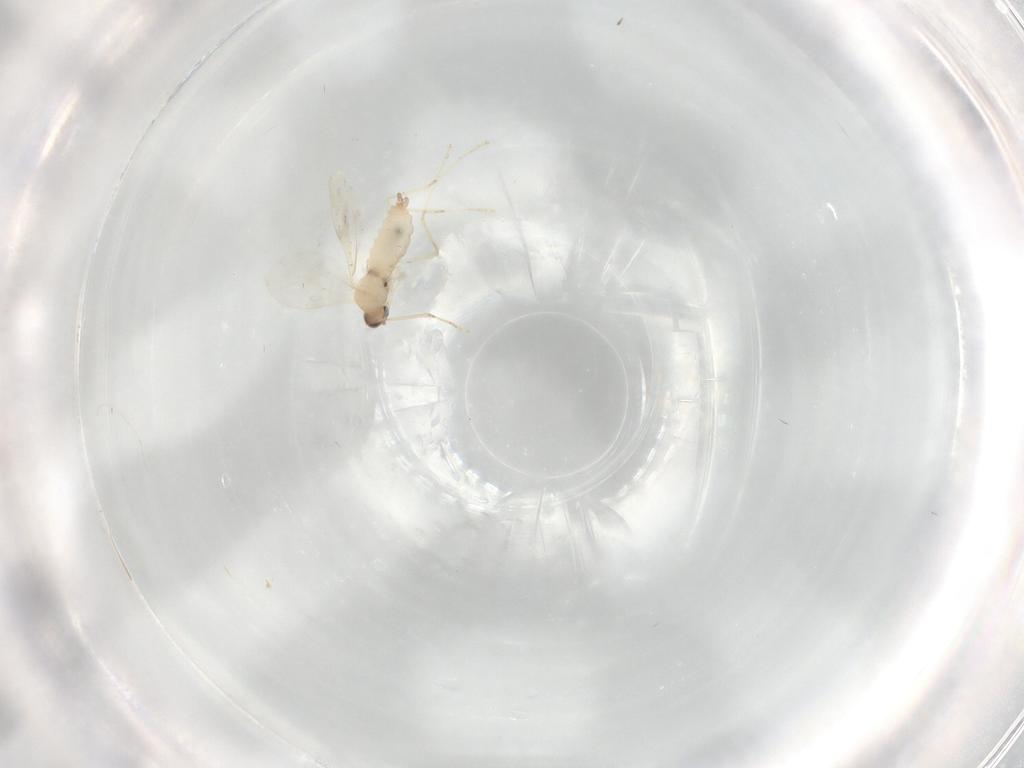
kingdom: Animalia
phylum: Arthropoda
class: Insecta
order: Diptera
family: Cecidomyiidae
